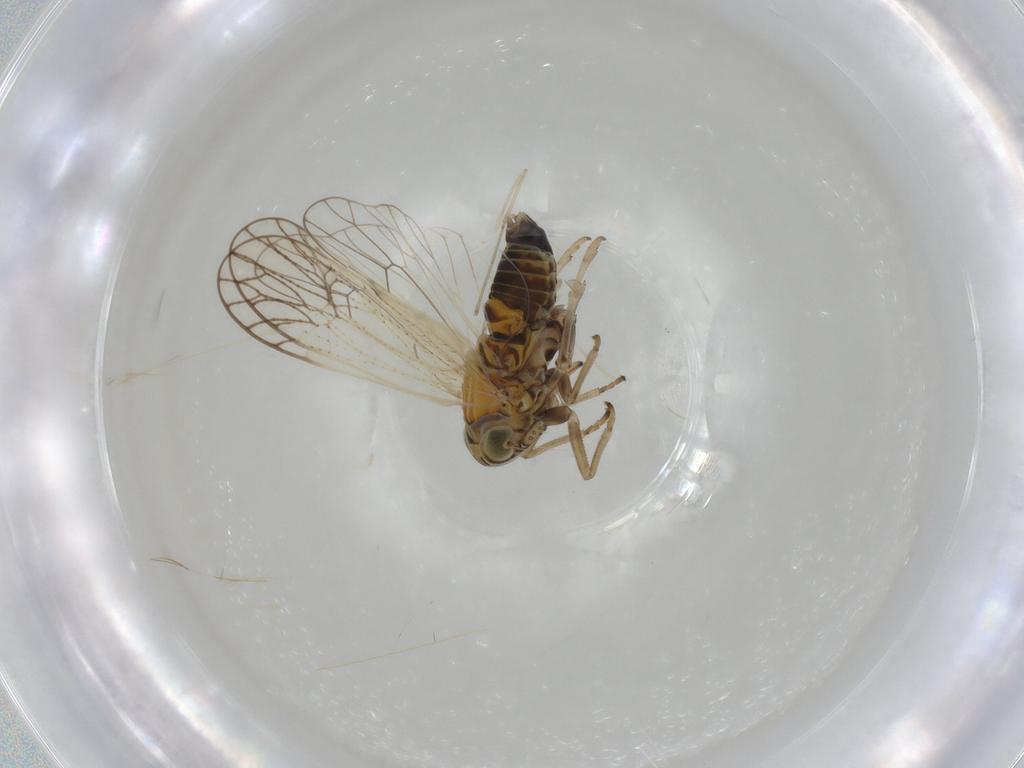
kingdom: Animalia
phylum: Arthropoda
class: Insecta
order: Diptera
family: Cecidomyiidae
